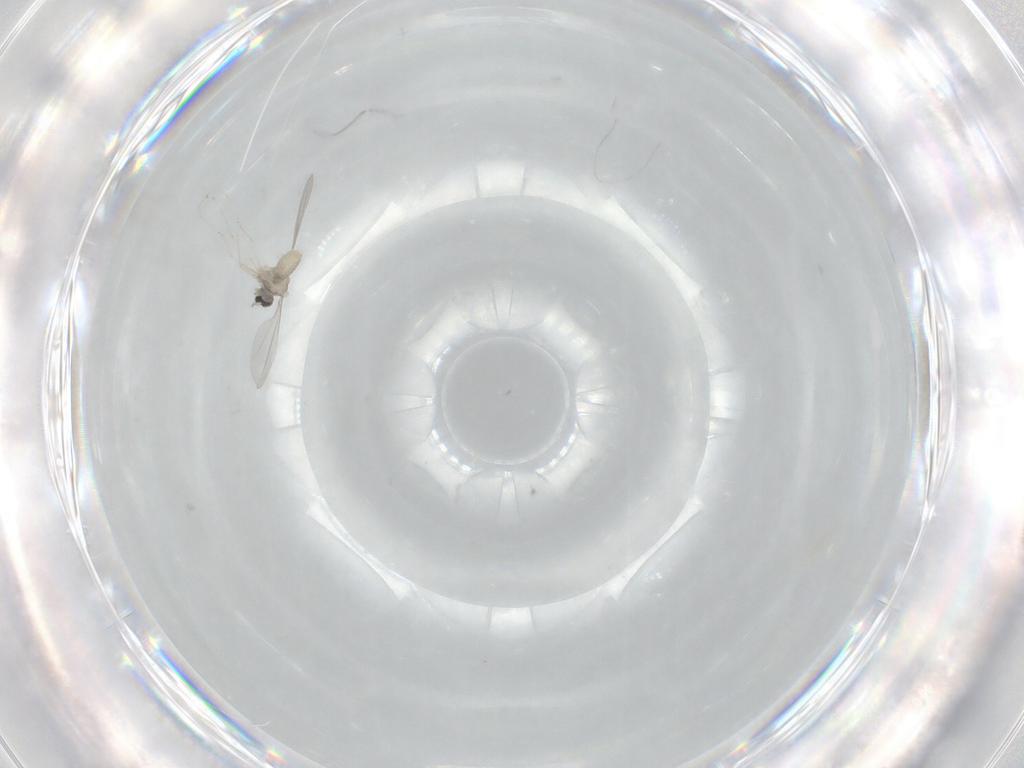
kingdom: Animalia
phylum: Arthropoda
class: Insecta
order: Diptera
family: Cecidomyiidae
